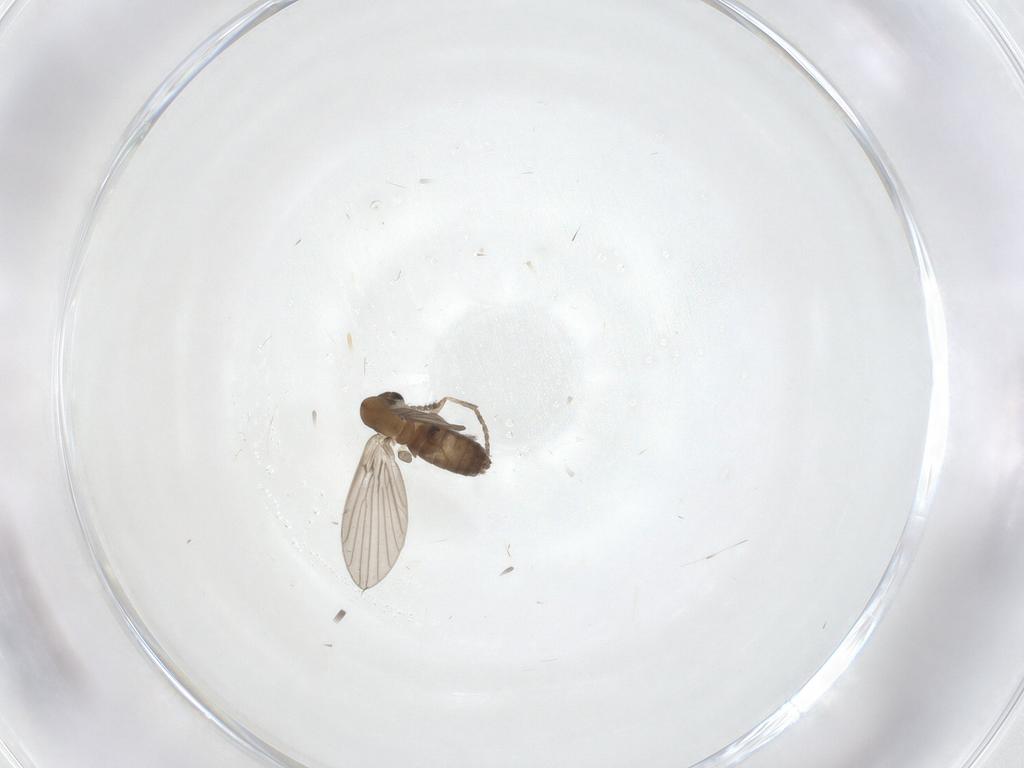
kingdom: Animalia
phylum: Arthropoda
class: Insecta
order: Diptera
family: Psychodidae
